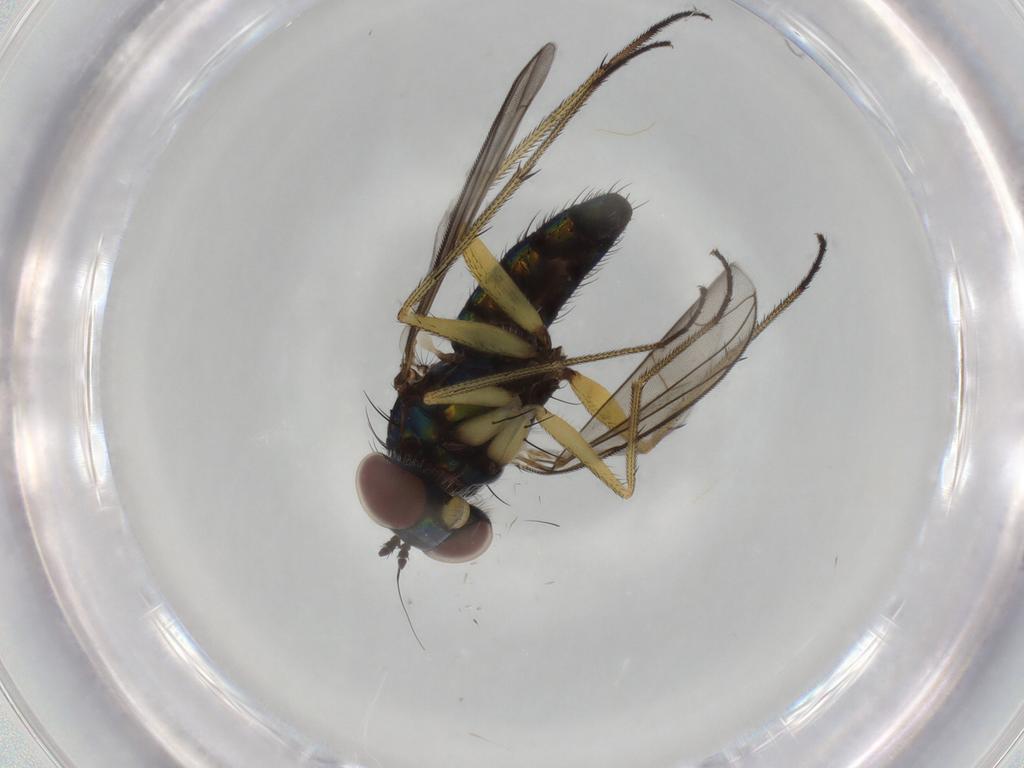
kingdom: Animalia
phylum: Arthropoda
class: Insecta
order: Diptera
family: Dolichopodidae
